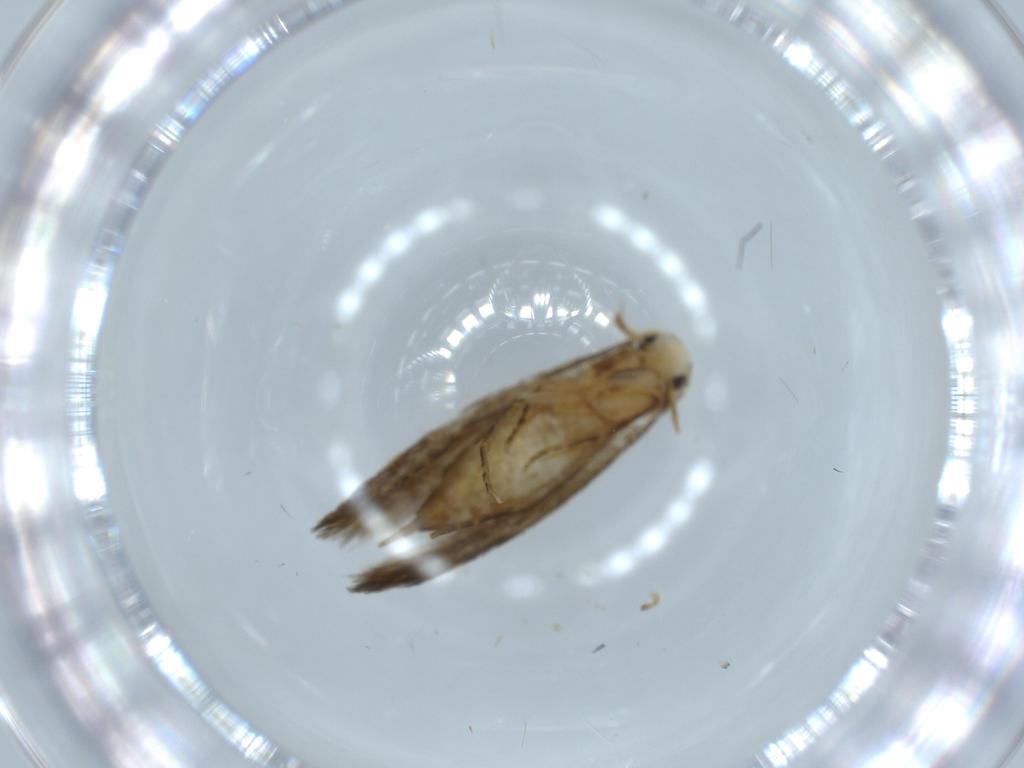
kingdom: Animalia
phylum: Arthropoda
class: Insecta
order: Lepidoptera
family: Tineidae
